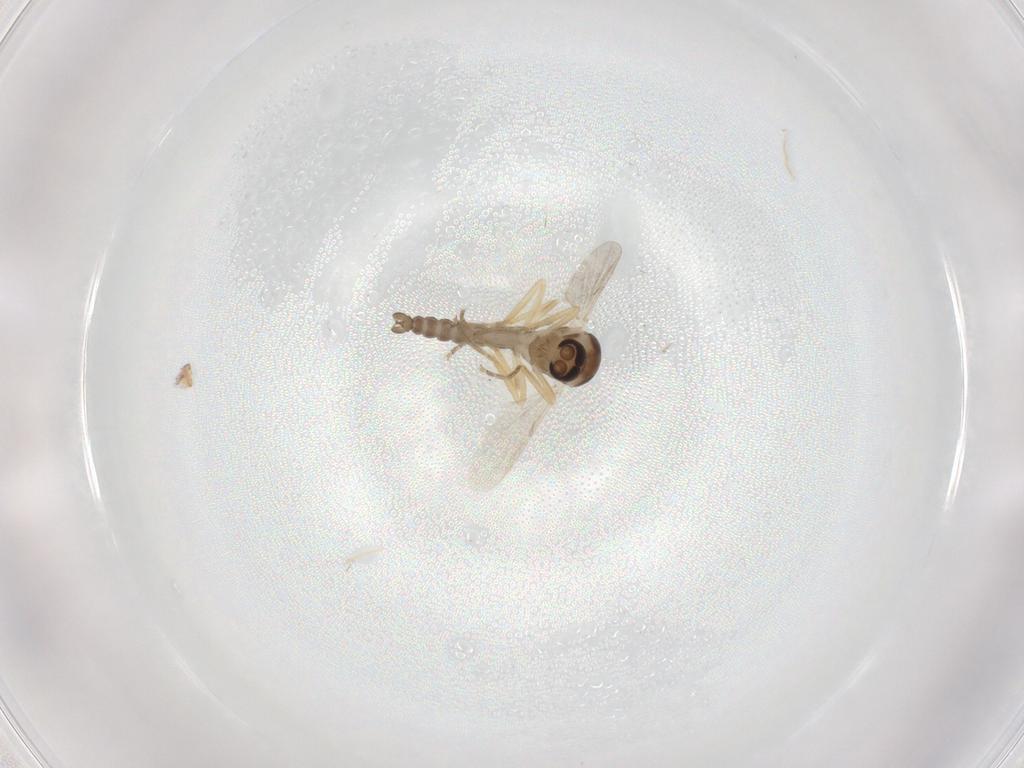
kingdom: Animalia
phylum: Arthropoda
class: Insecta
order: Diptera
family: Ceratopogonidae
